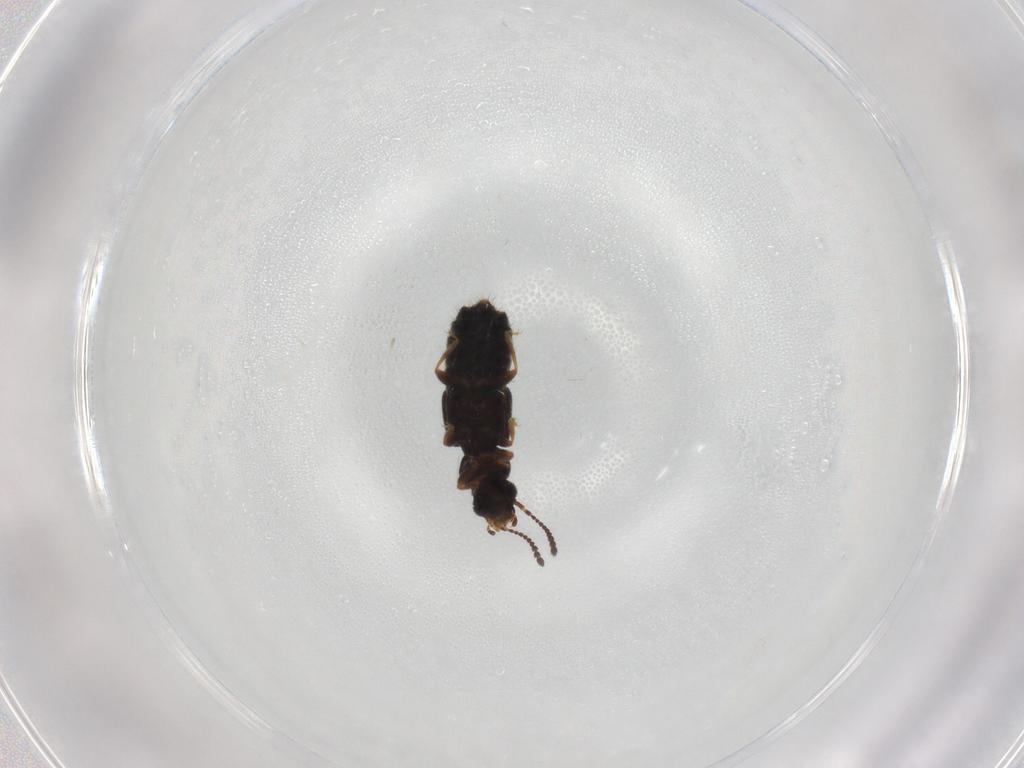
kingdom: Animalia
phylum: Arthropoda
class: Insecta
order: Coleoptera
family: Staphylinidae
